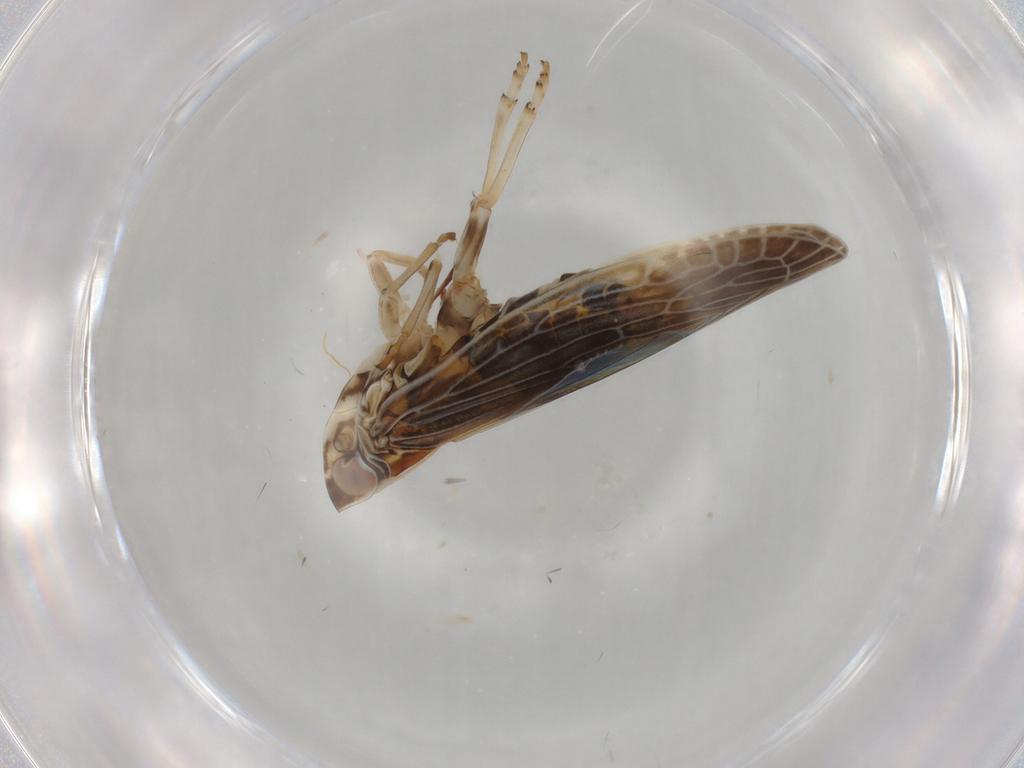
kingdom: Animalia
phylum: Arthropoda
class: Insecta
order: Hemiptera
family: Achilidae
